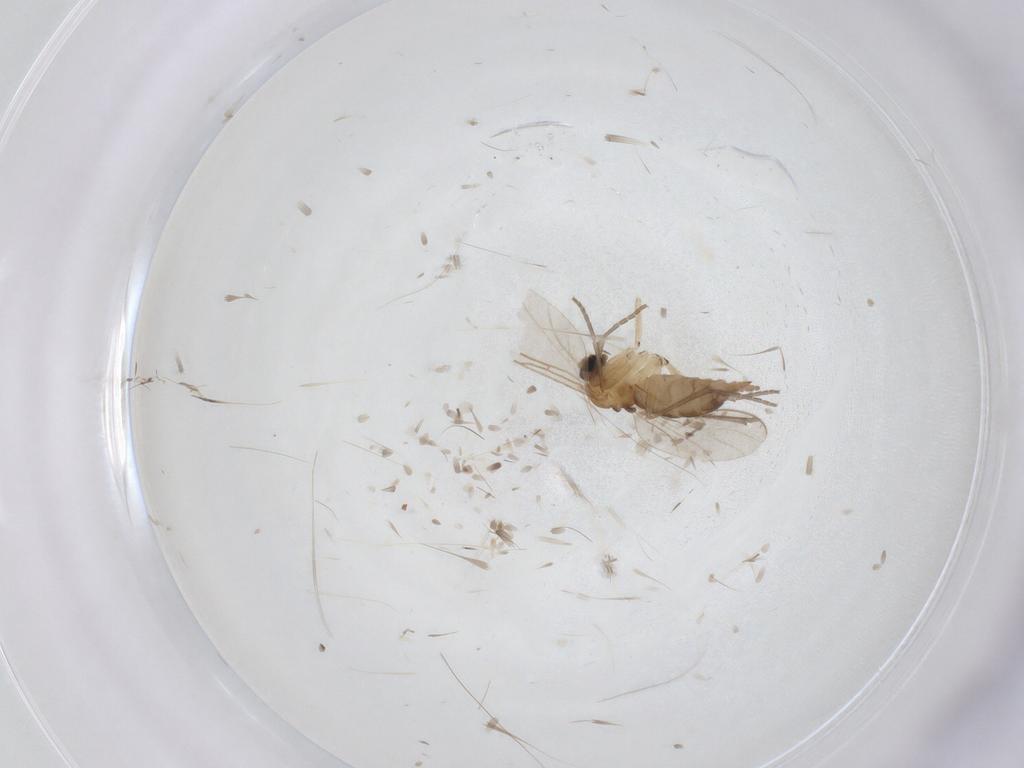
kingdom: Animalia
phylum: Arthropoda
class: Insecta
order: Diptera
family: Sciaridae
